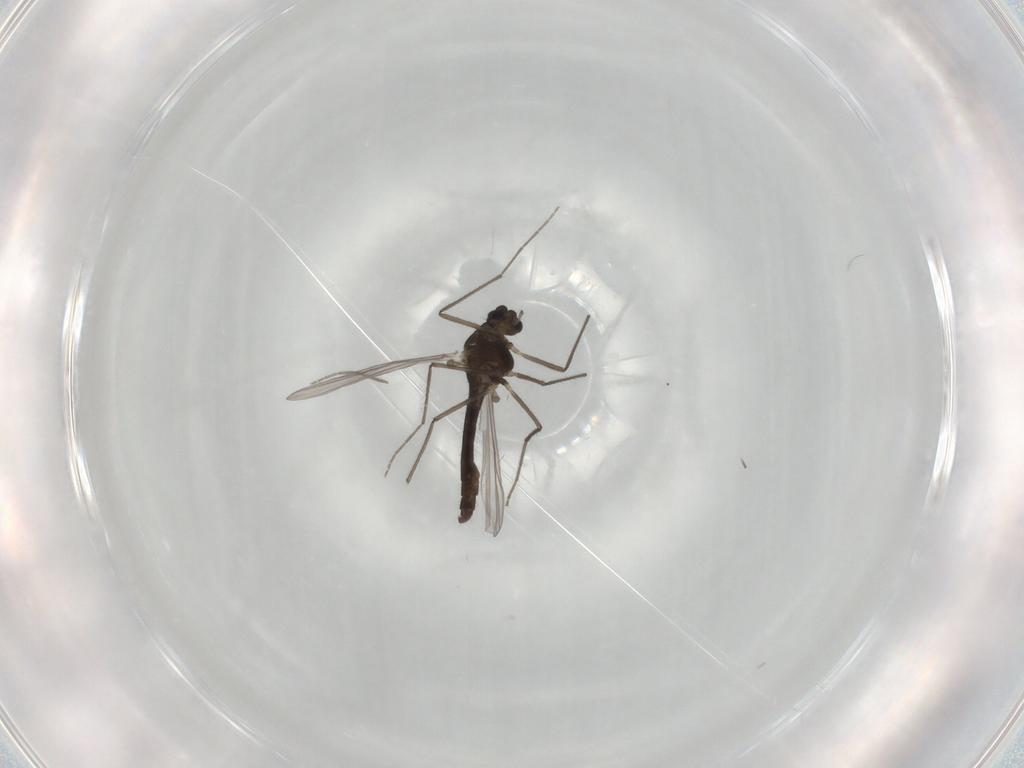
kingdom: Animalia
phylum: Arthropoda
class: Insecta
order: Diptera
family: Chironomidae
